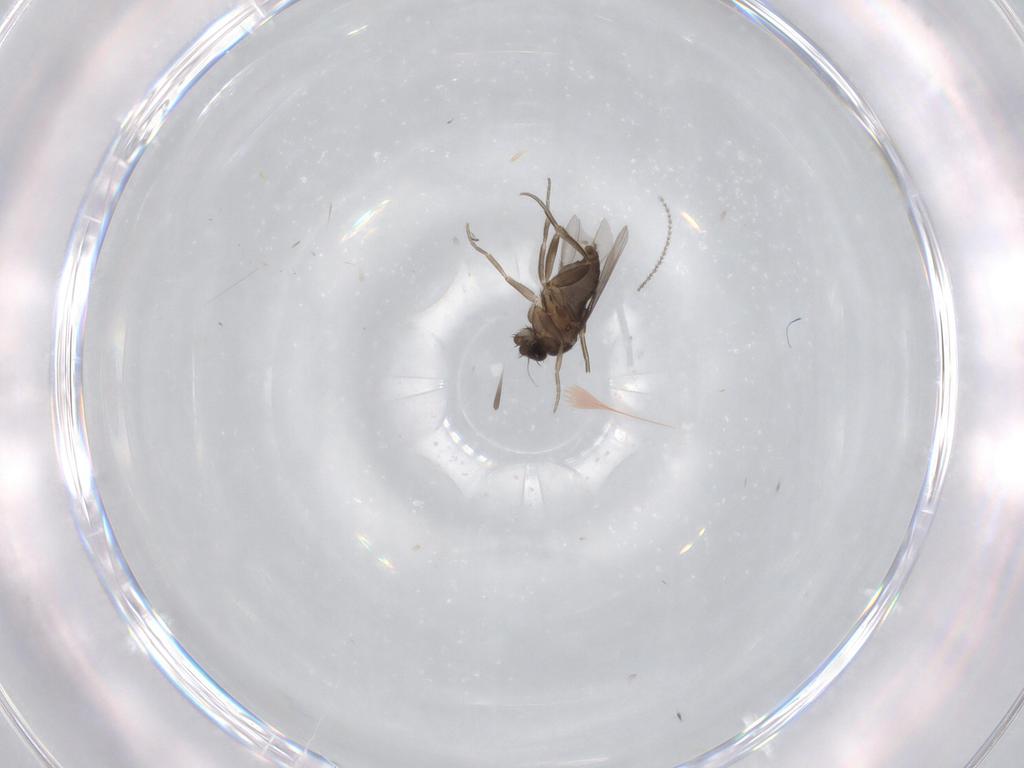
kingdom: Animalia
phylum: Arthropoda
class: Insecta
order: Diptera
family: Cecidomyiidae
